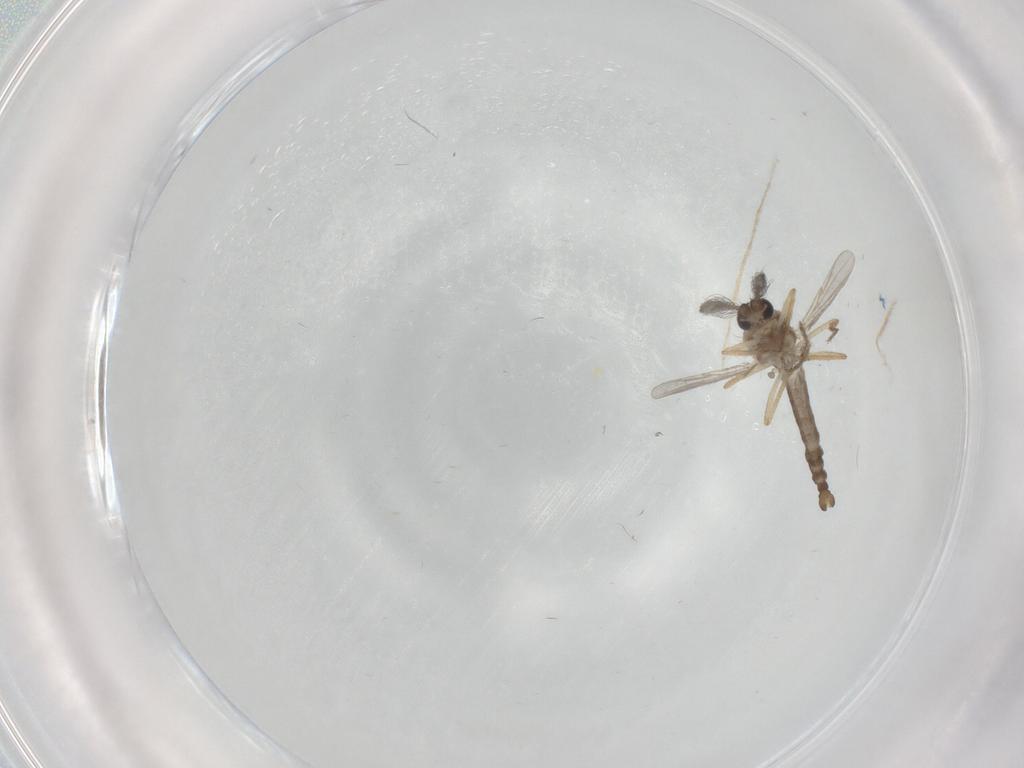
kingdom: Animalia
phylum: Arthropoda
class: Insecta
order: Diptera
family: Ceratopogonidae
